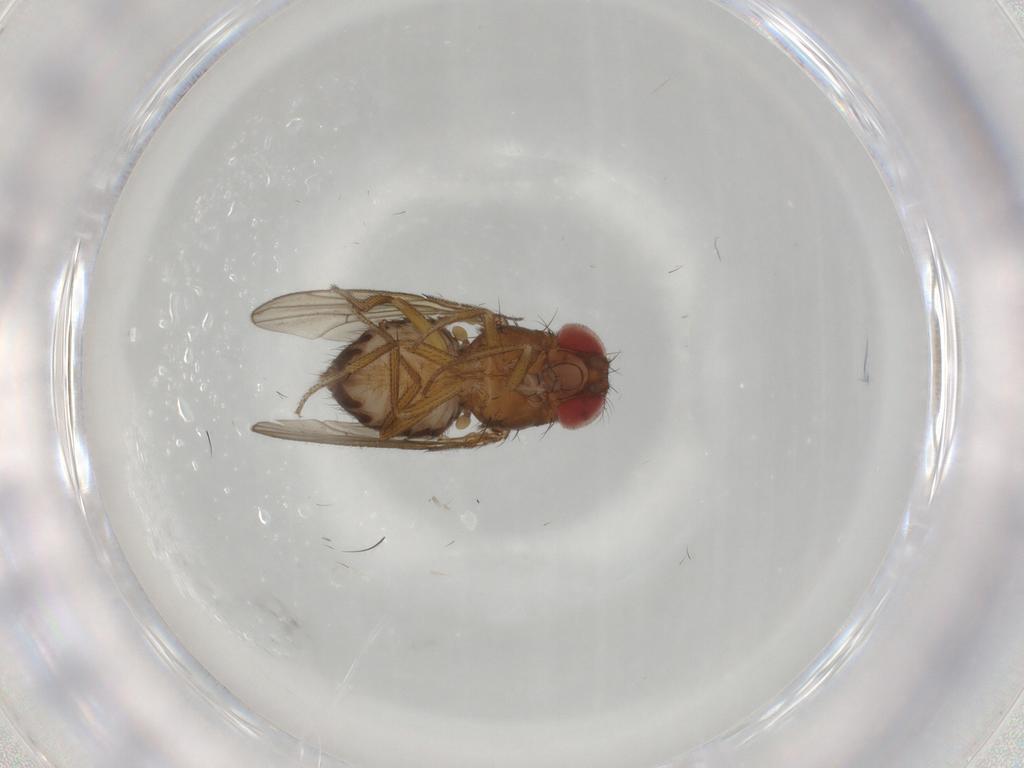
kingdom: Animalia
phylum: Arthropoda
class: Insecta
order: Diptera
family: Drosophilidae
